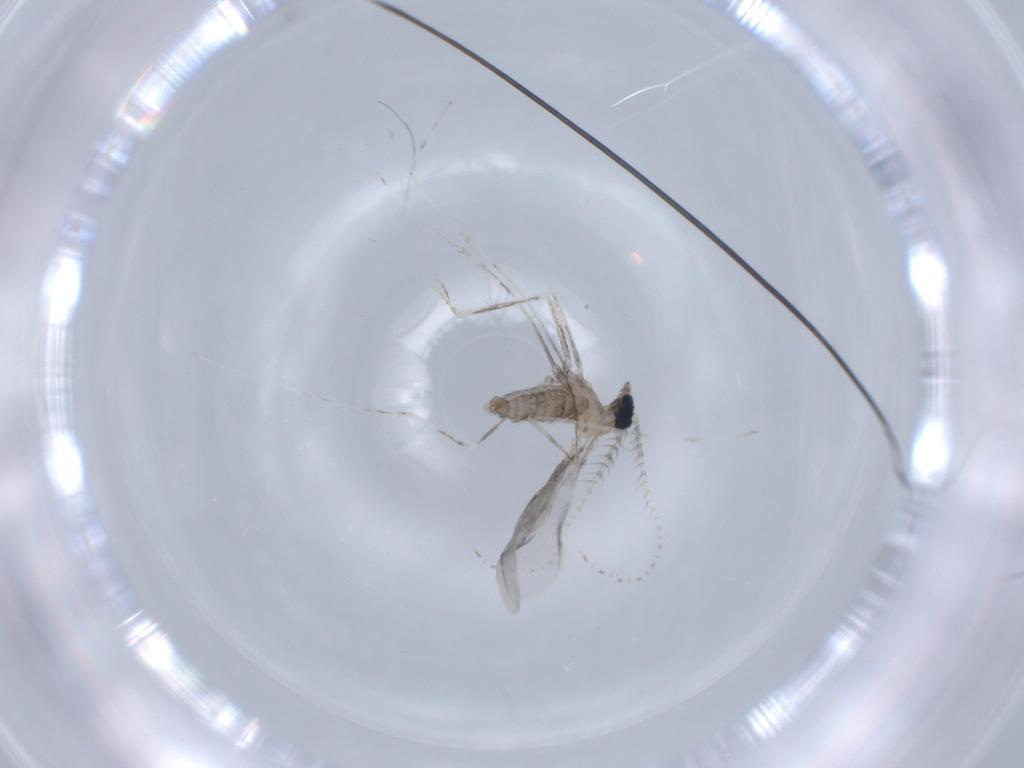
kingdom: Animalia
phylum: Arthropoda
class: Insecta
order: Diptera
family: Cecidomyiidae
